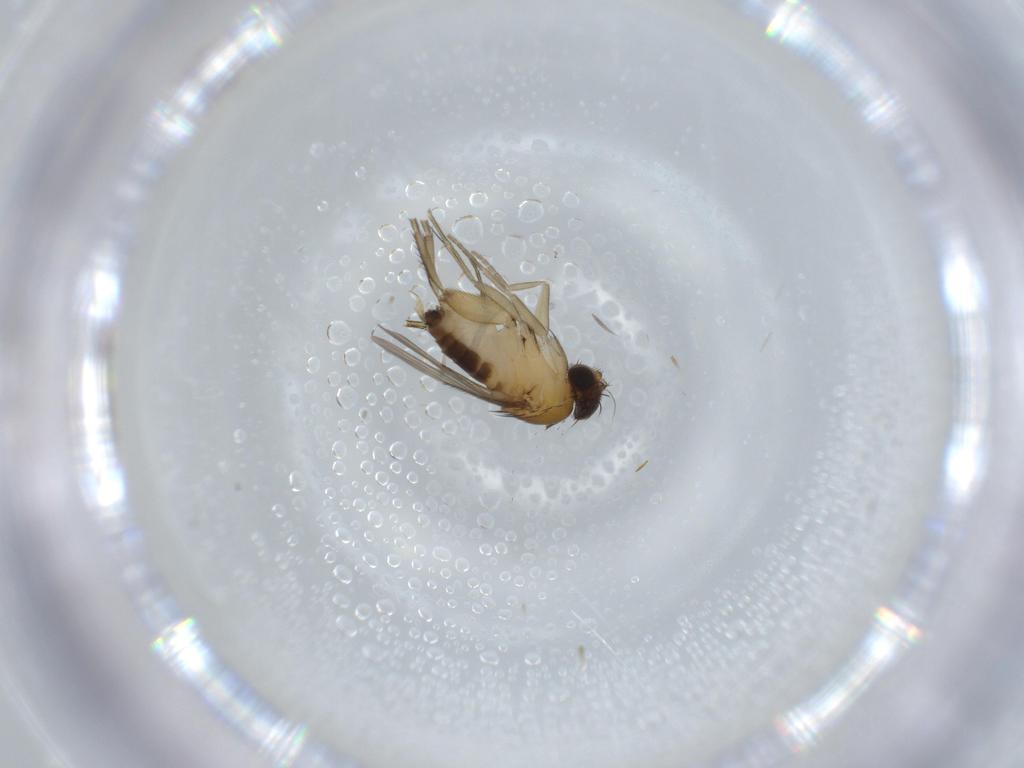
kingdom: Animalia
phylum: Arthropoda
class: Insecta
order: Diptera
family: Phoridae
